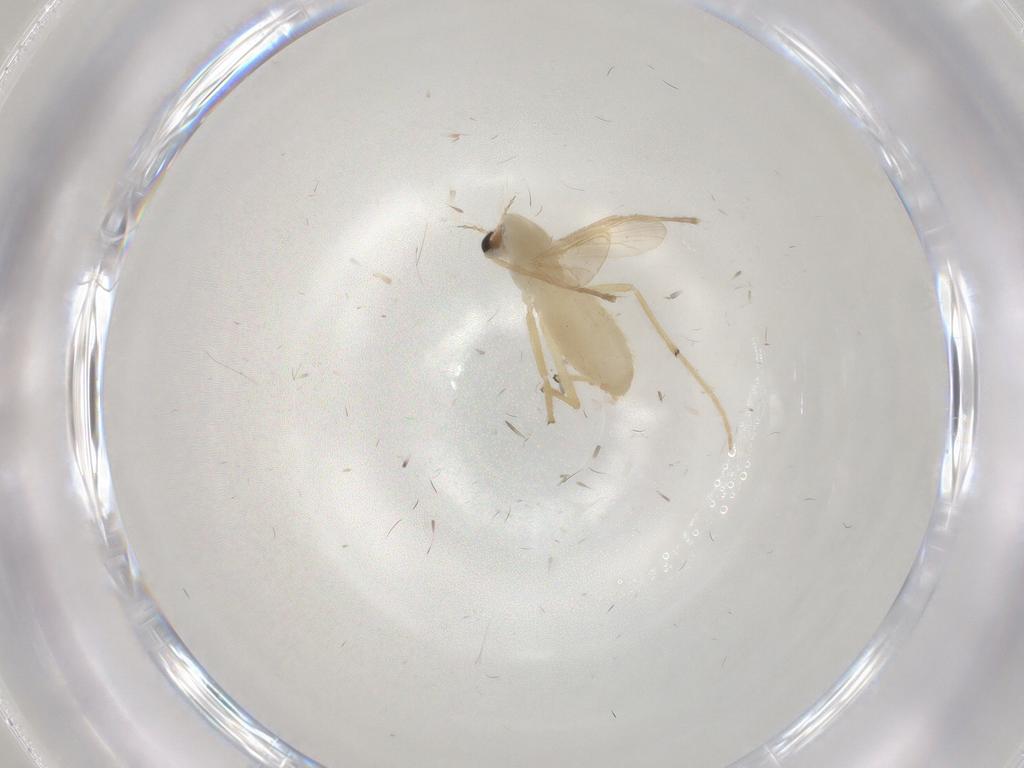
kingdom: Animalia
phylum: Arthropoda
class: Insecta
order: Diptera
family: Chironomidae
